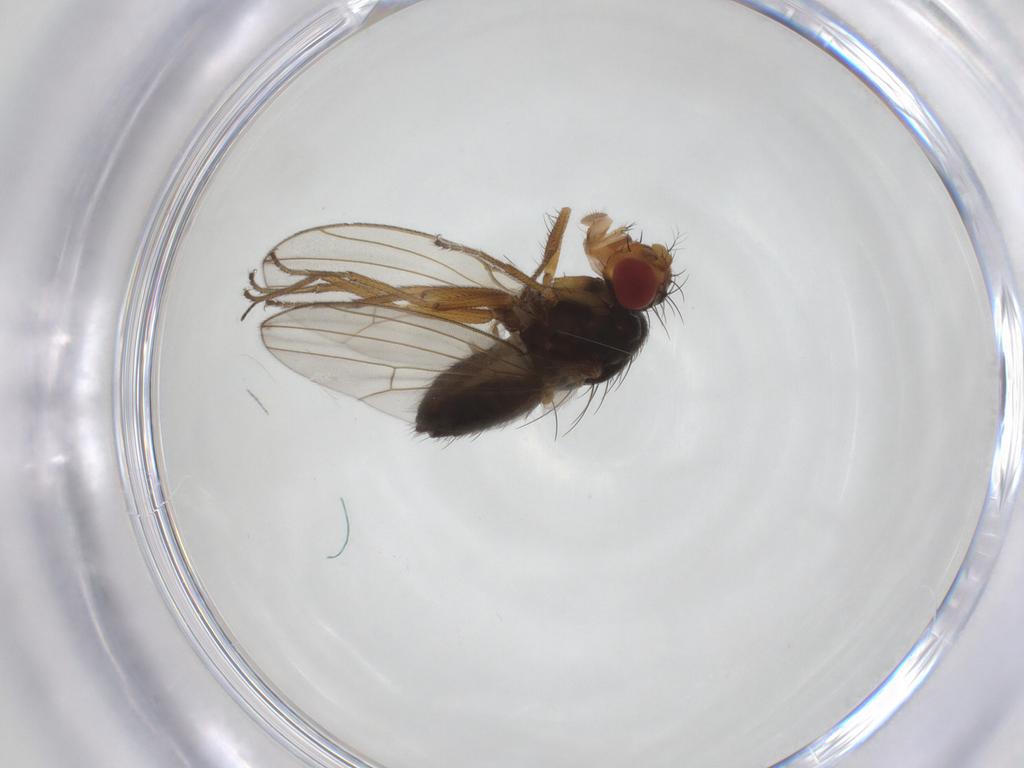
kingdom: Animalia
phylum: Arthropoda
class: Insecta
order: Diptera
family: Drosophilidae
